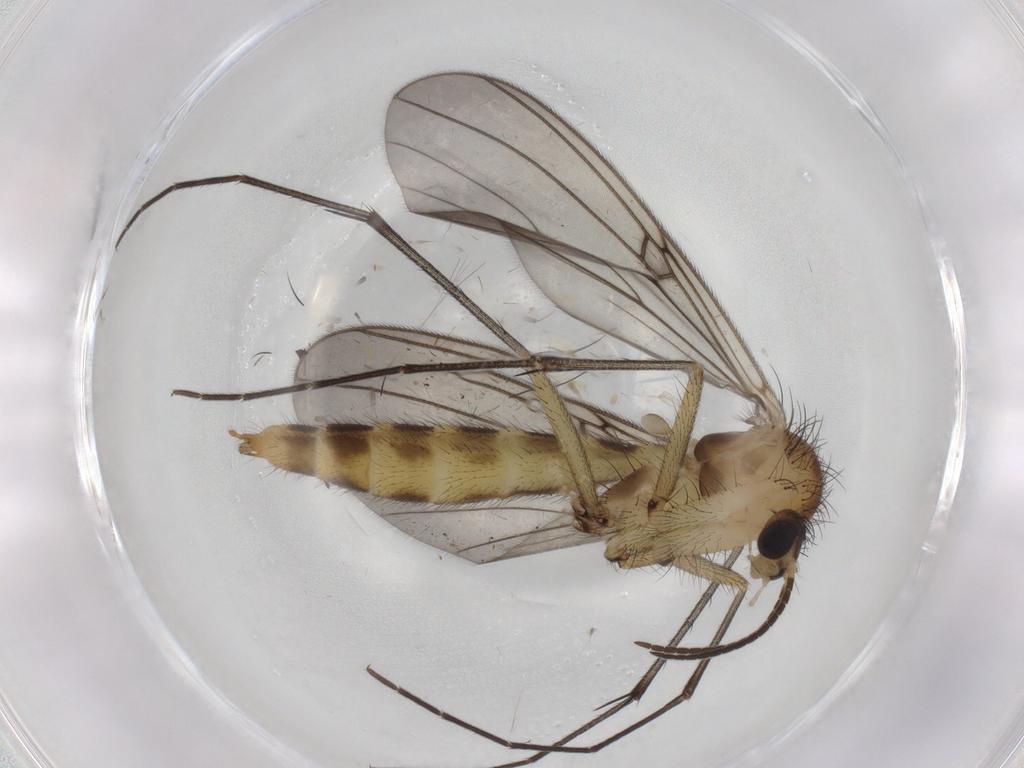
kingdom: Animalia
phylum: Arthropoda
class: Insecta
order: Diptera
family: Mycetophilidae
